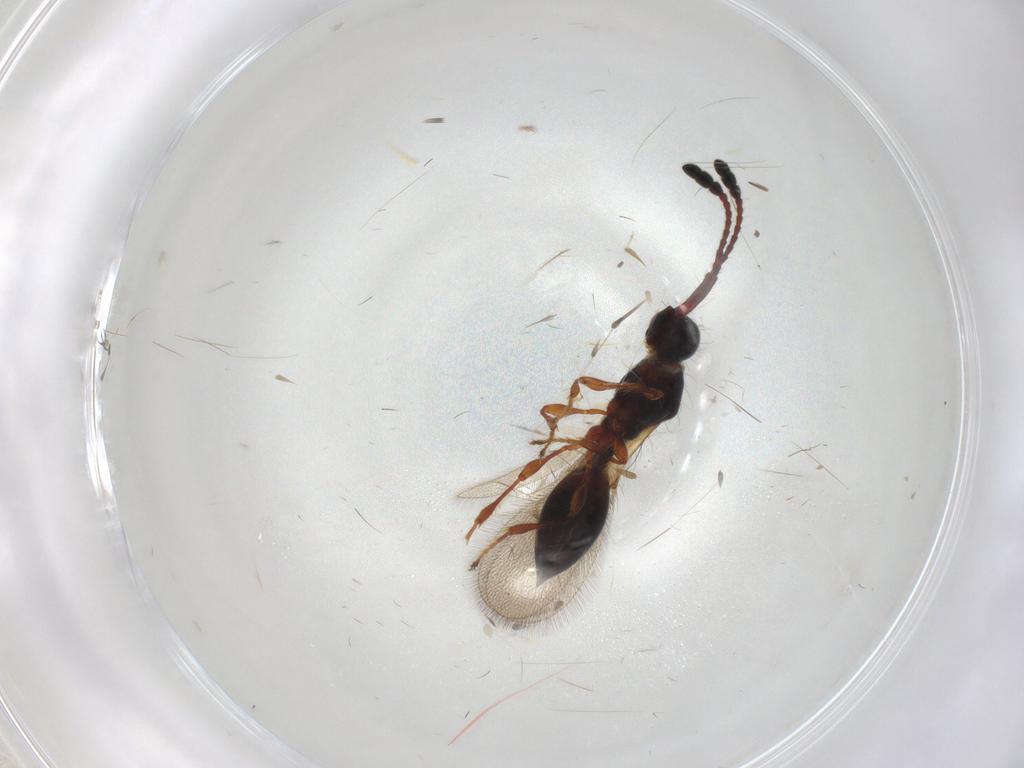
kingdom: Animalia
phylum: Arthropoda
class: Insecta
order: Hymenoptera
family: Diapriidae
